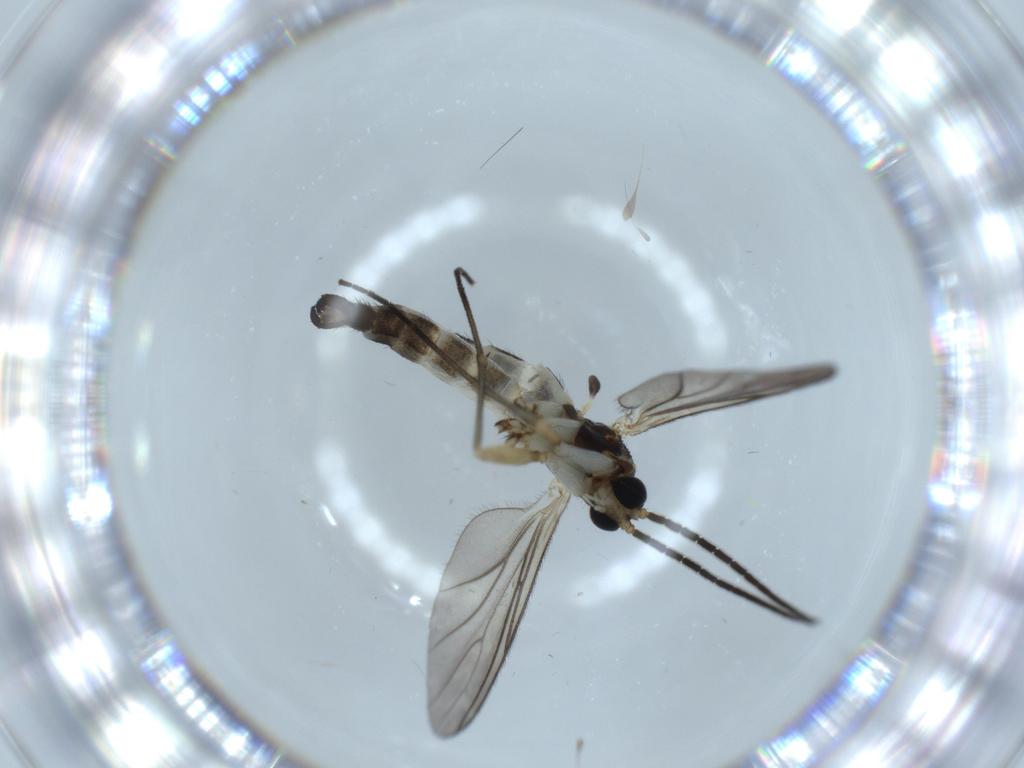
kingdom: Animalia
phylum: Arthropoda
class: Insecta
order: Diptera
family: Sciaridae
